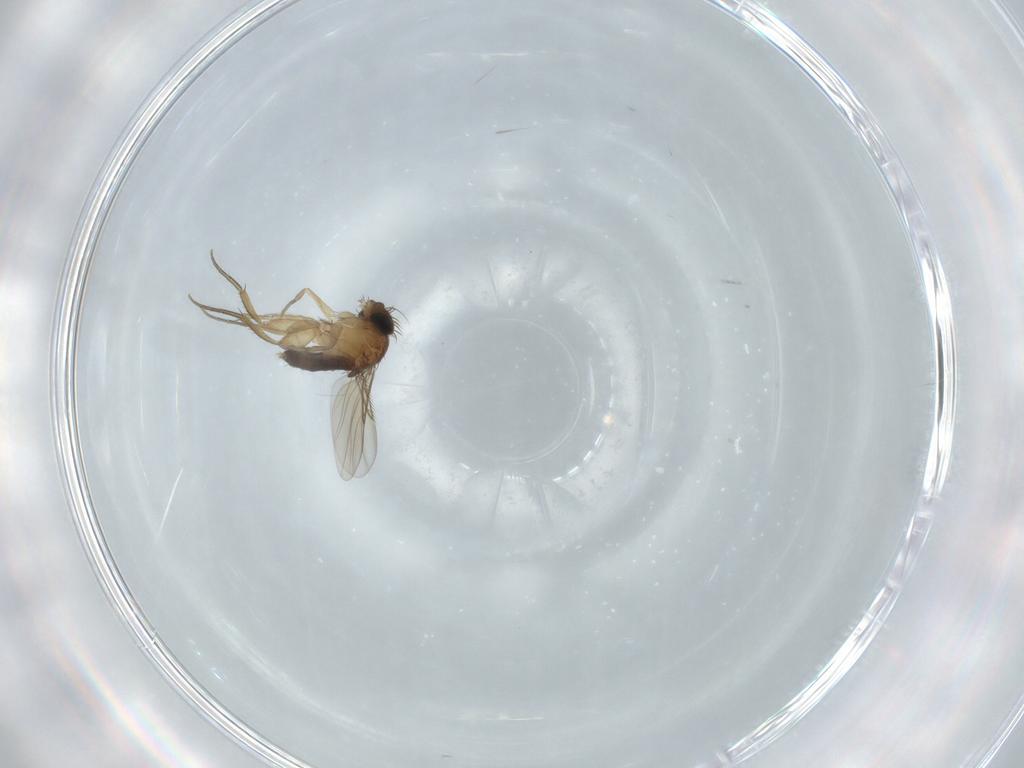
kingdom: Animalia
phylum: Arthropoda
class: Insecta
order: Diptera
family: Phoridae
